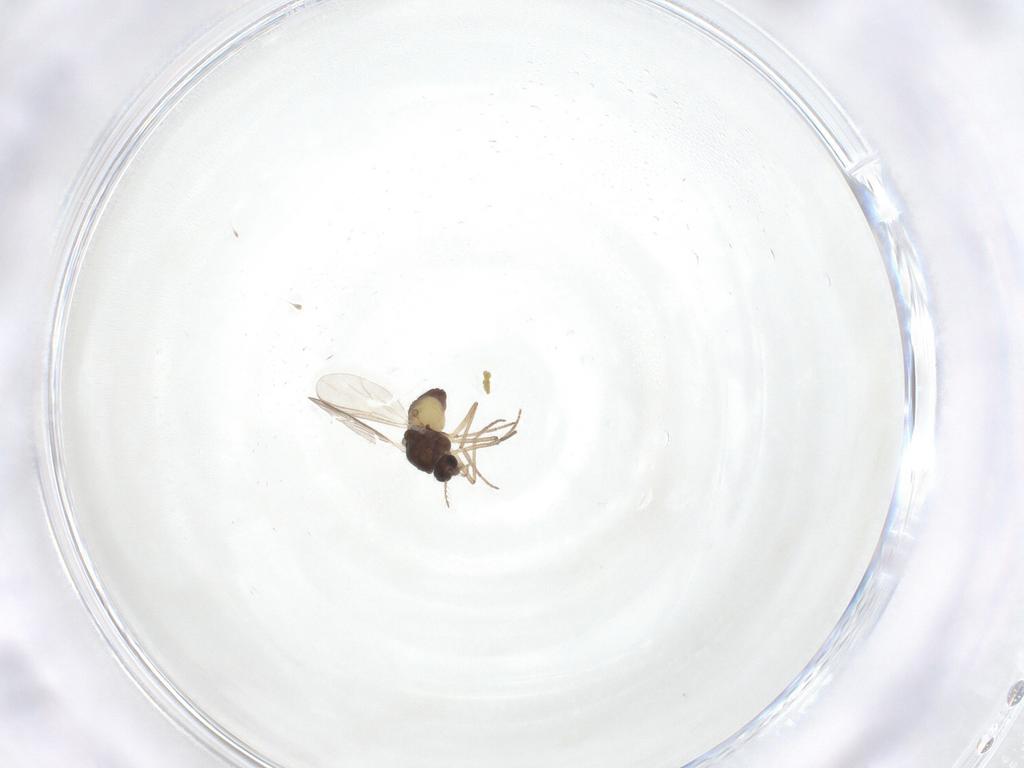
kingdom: Animalia
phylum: Arthropoda
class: Insecta
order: Diptera
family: Chironomidae
